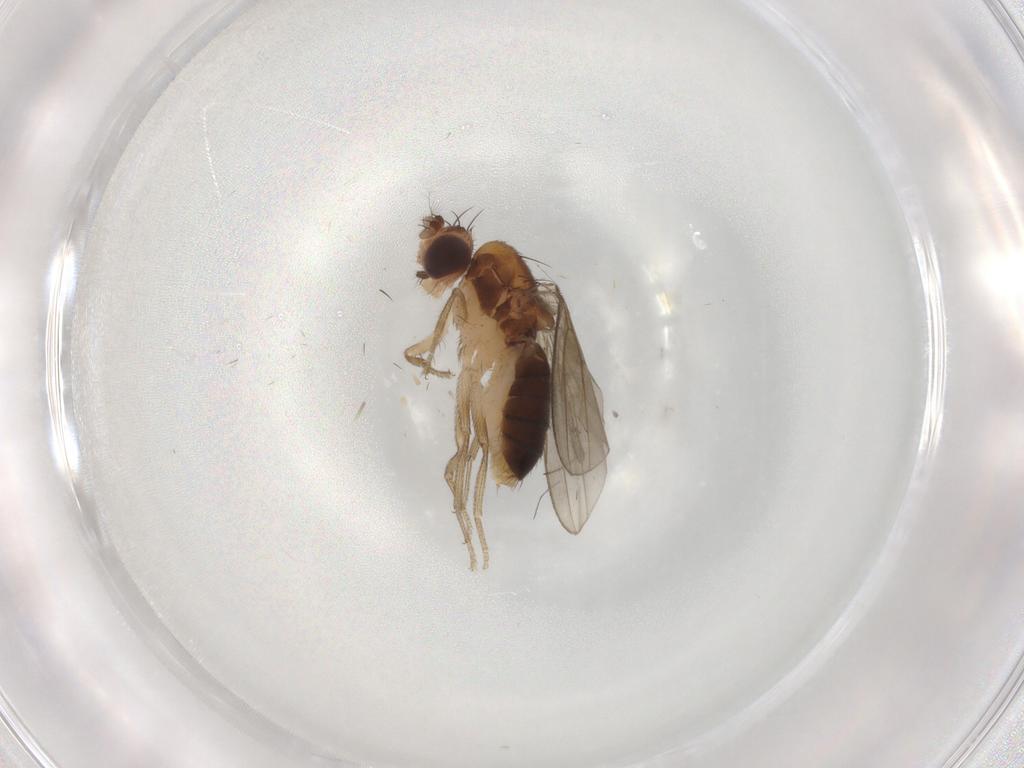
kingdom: Animalia
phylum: Arthropoda
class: Insecta
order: Diptera
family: Drosophilidae
